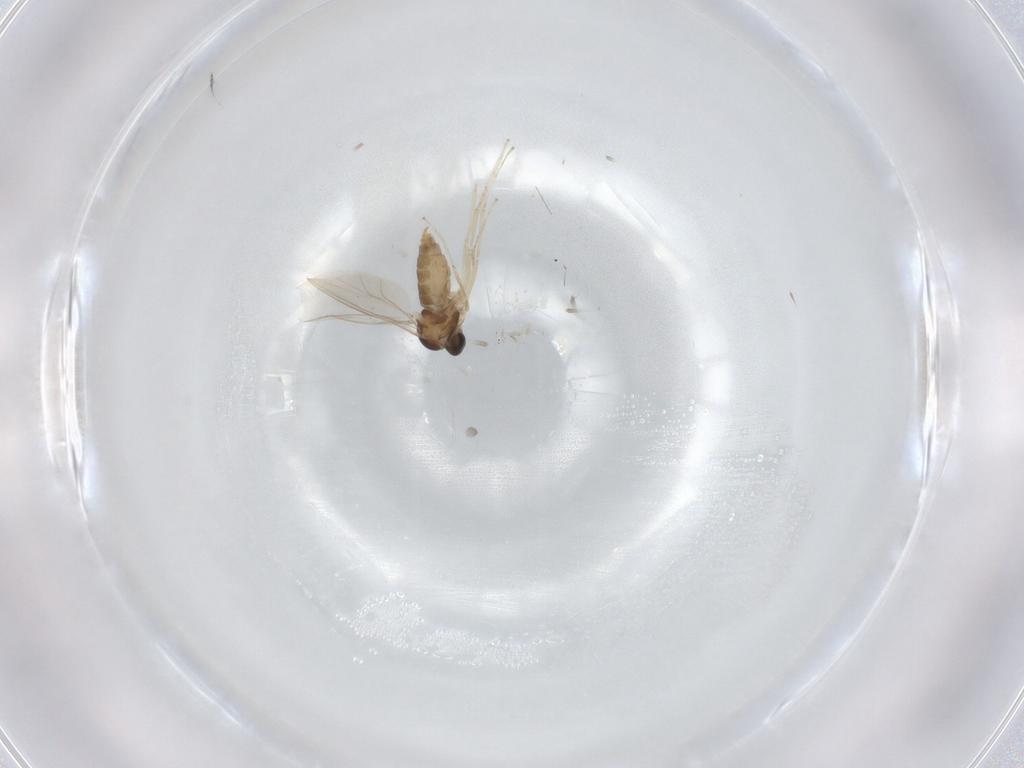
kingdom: Animalia
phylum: Arthropoda
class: Insecta
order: Diptera
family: Cecidomyiidae
